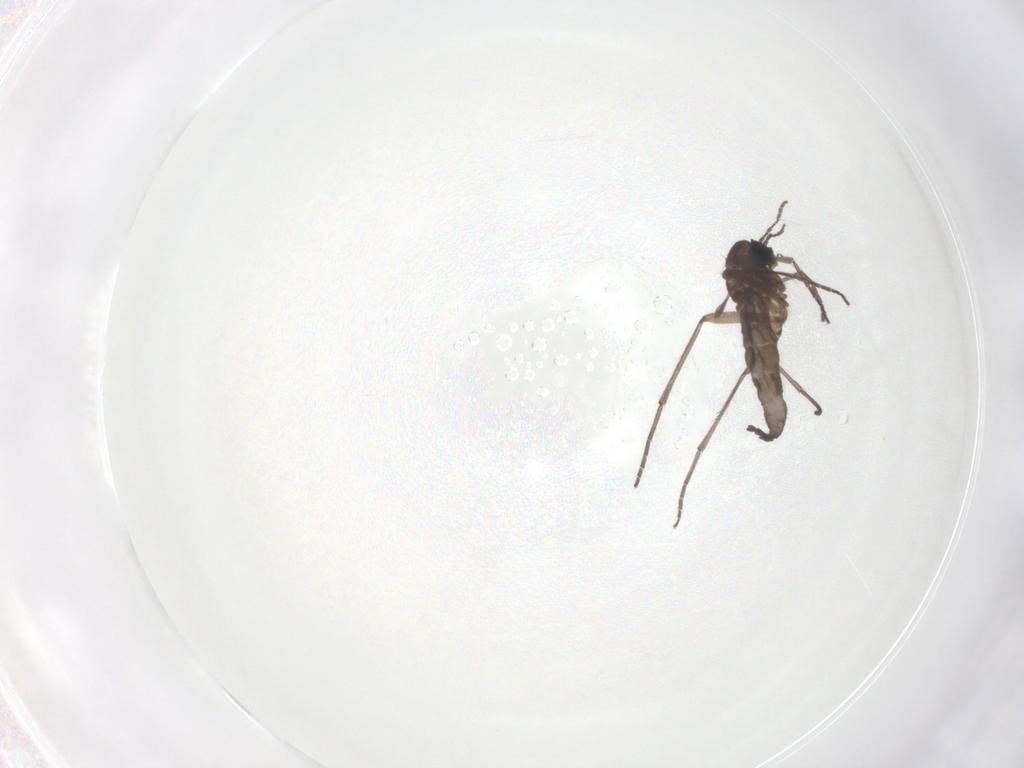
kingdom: Animalia
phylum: Arthropoda
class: Insecta
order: Diptera
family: Sciaridae
